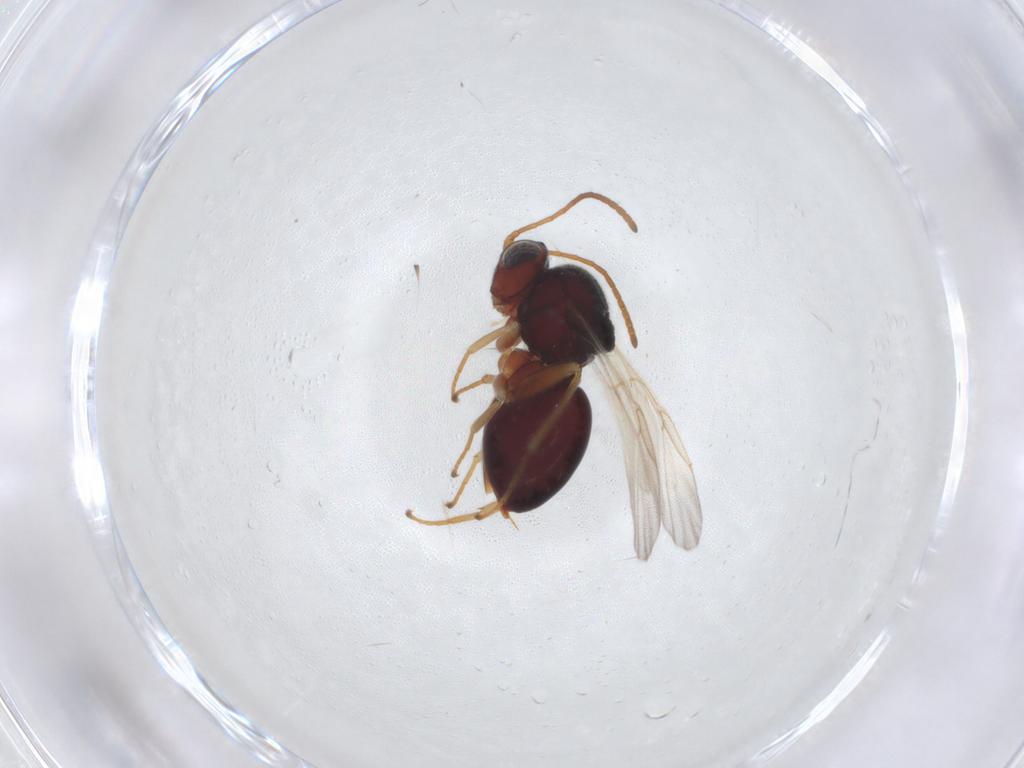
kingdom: Animalia
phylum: Arthropoda
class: Insecta
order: Hymenoptera
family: Cynipidae
